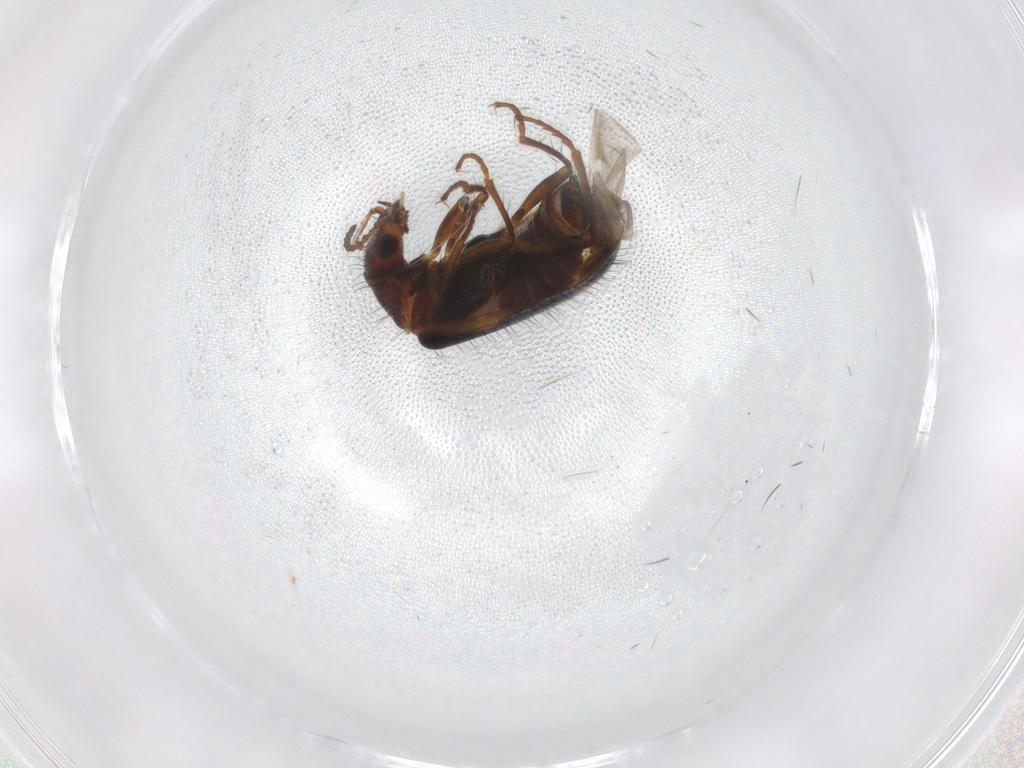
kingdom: Animalia
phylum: Arthropoda
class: Insecta
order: Coleoptera
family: Melyridae
